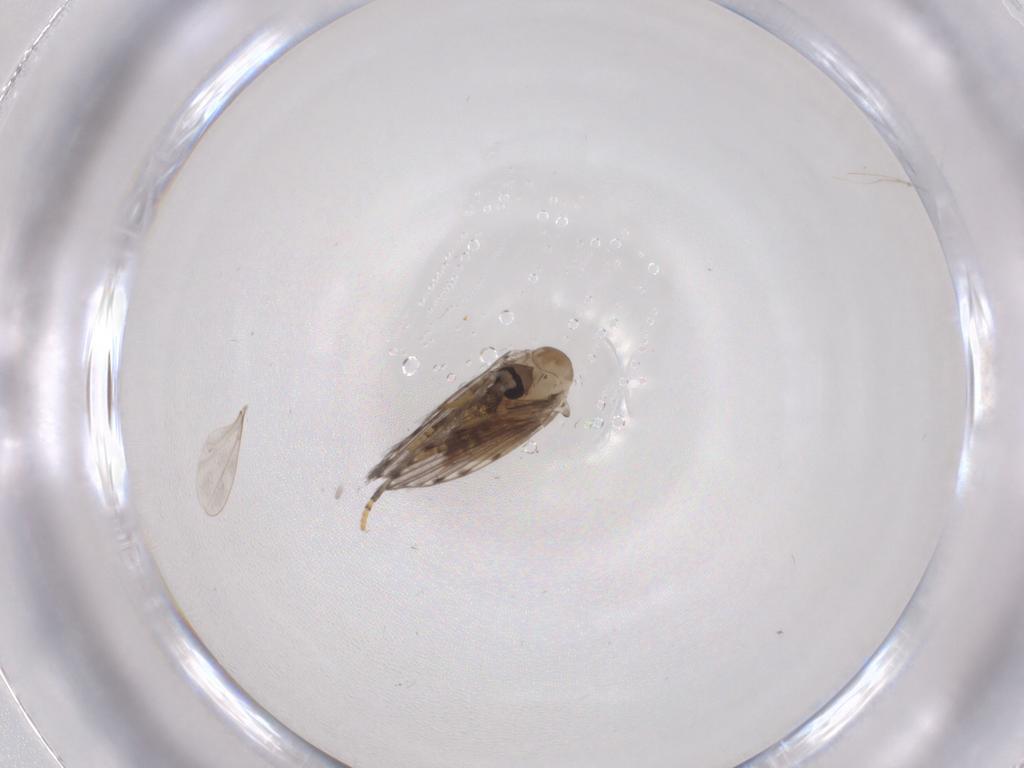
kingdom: Animalia
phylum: Arthropoda
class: Insecta
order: Diptera
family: Psychodidae
